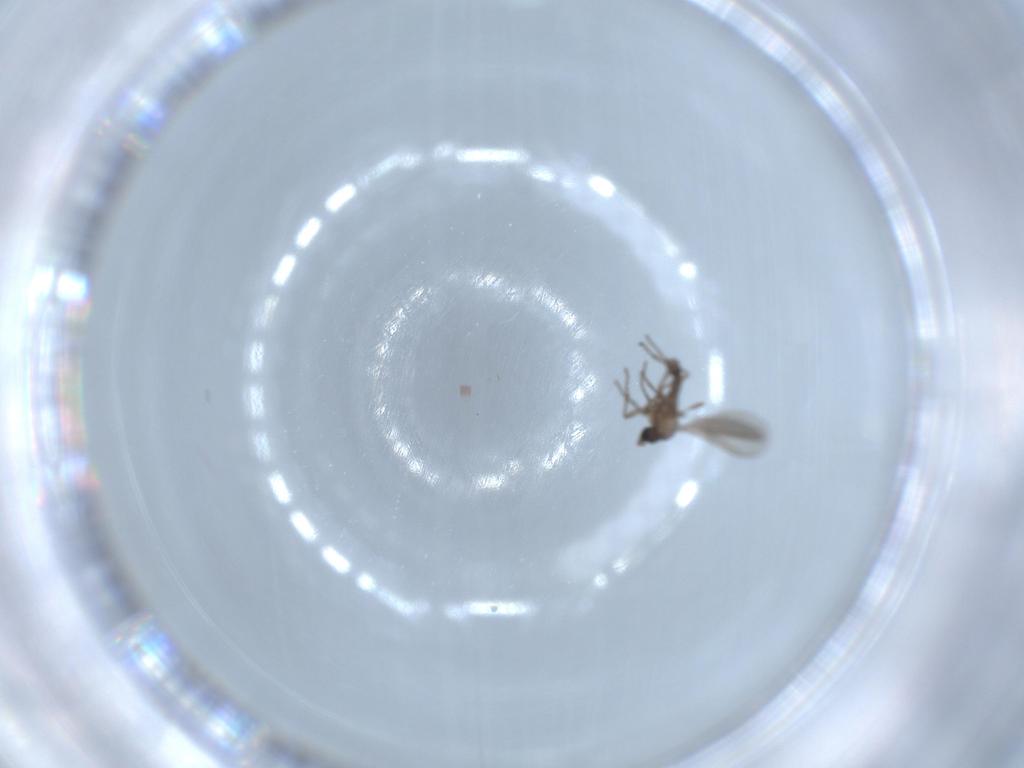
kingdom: Animalia
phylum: Arthropoda
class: Insecta
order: Diptera
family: Chironomidae
